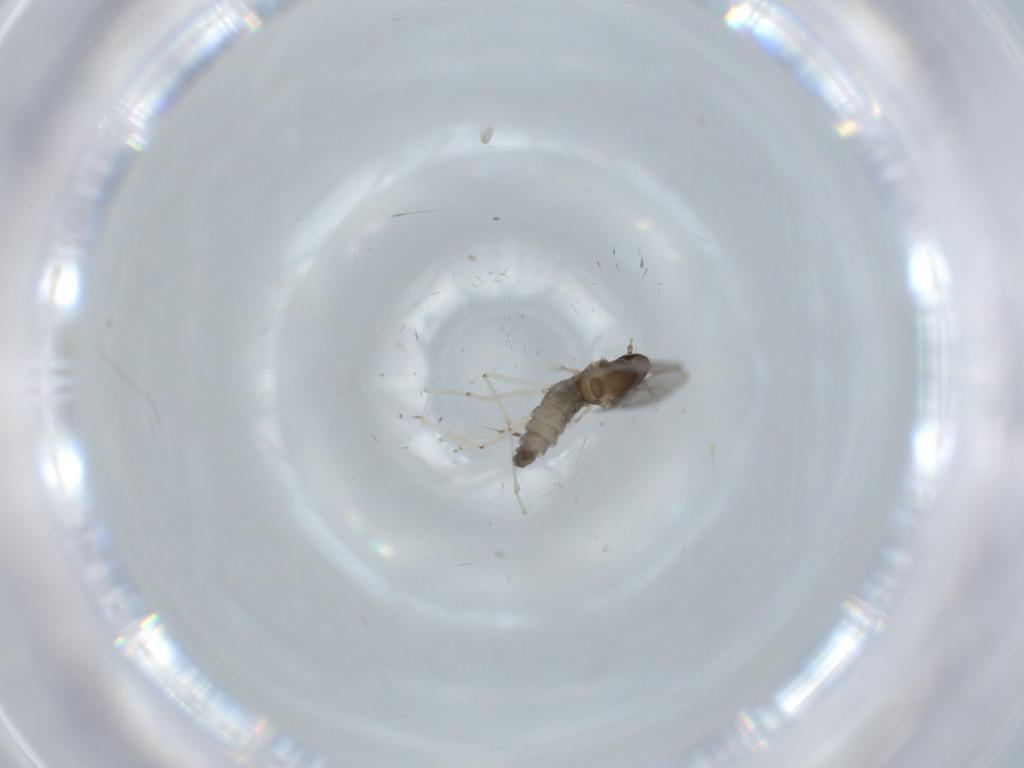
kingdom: Animalia
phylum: Arthropoda
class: Insecta
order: Diptera
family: Cecidomyiidae
